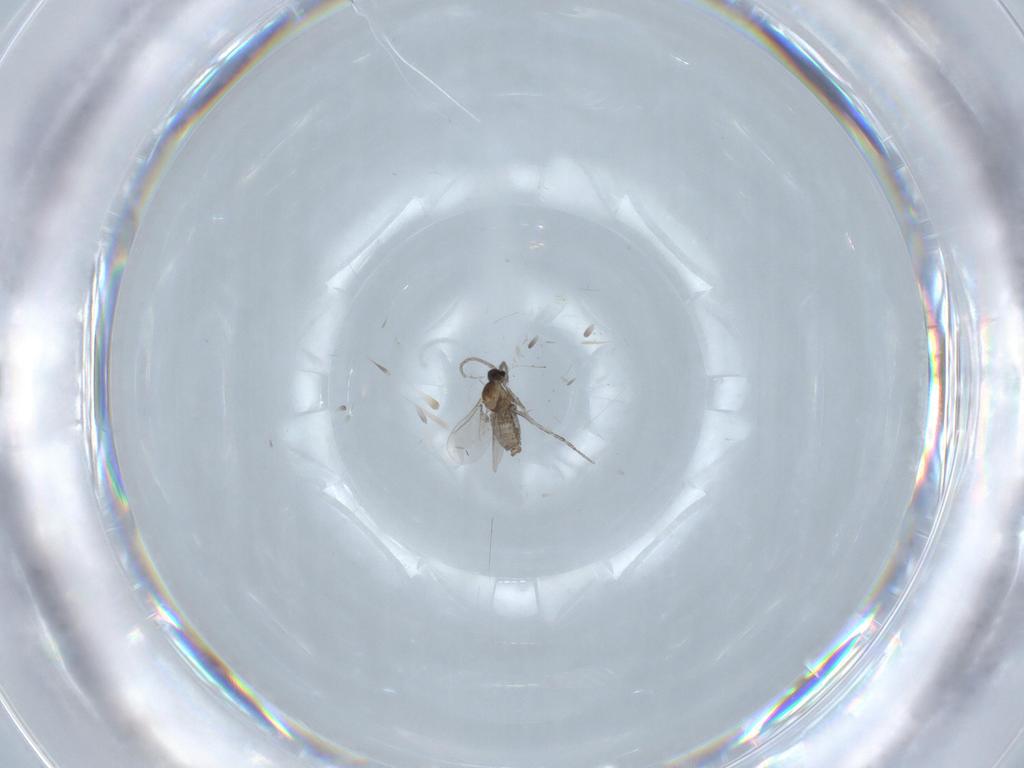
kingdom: Animalia
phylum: Arthropoda
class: Insecta
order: Diptera
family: Cecidomyiidae
